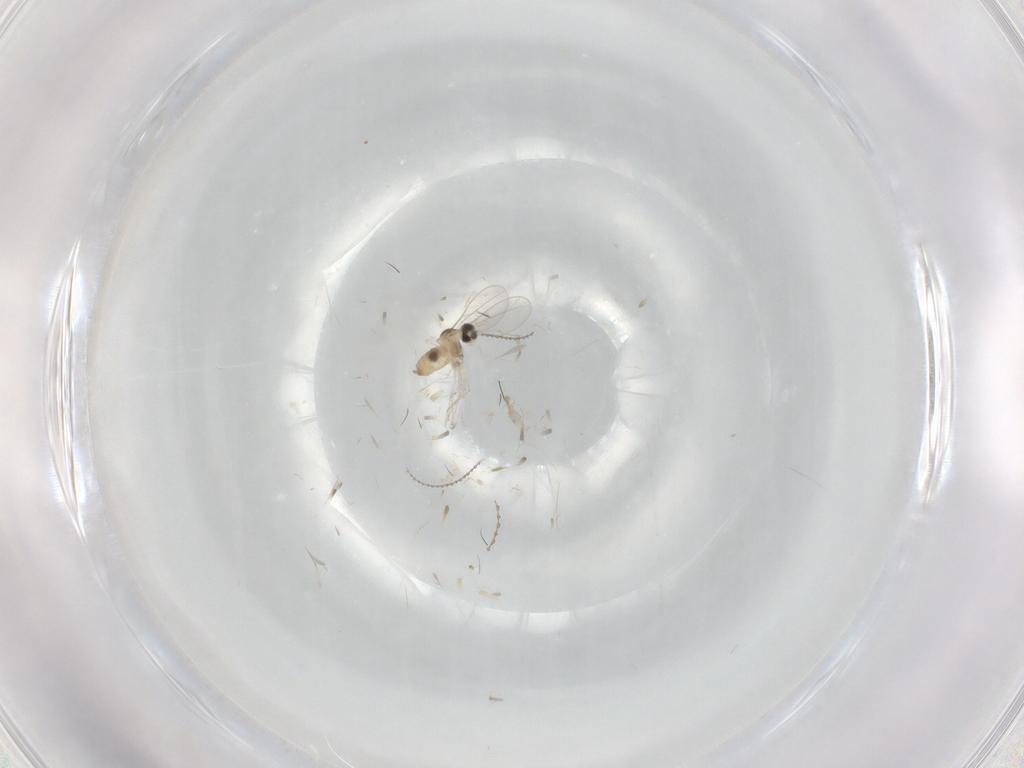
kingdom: Animalia
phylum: Arthropoda
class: Insecta
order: Diptera
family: Cecidomyiidae
